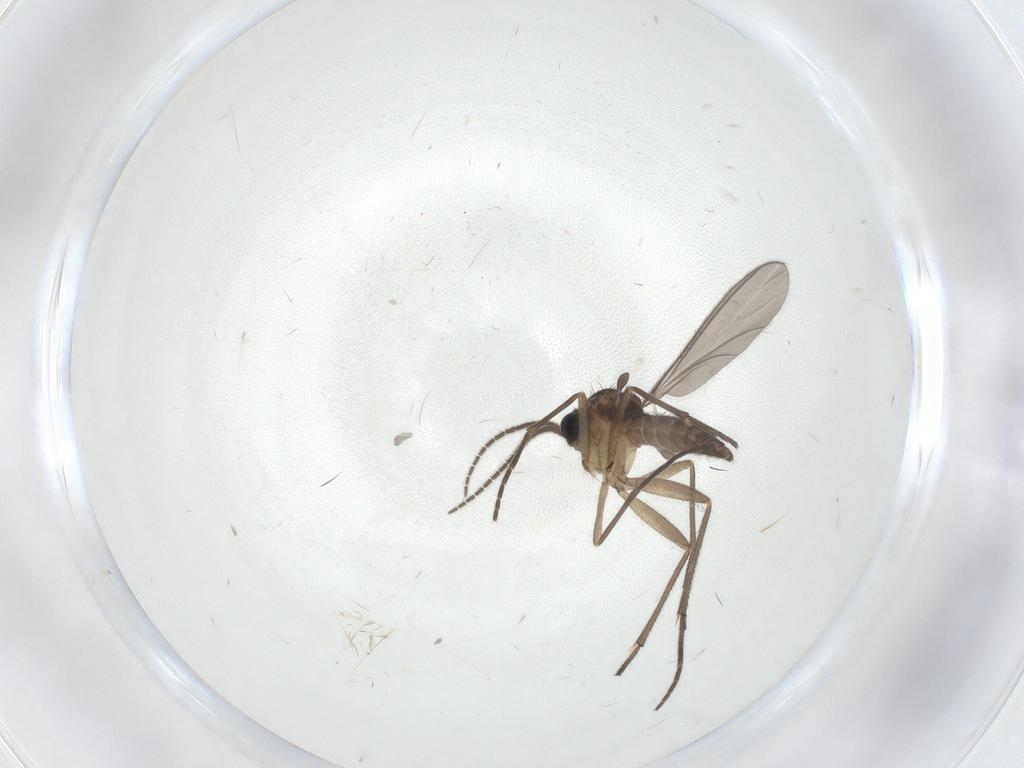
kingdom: Animalia
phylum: Arthropoda
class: Insecta
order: Diptera
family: Sciaridae
